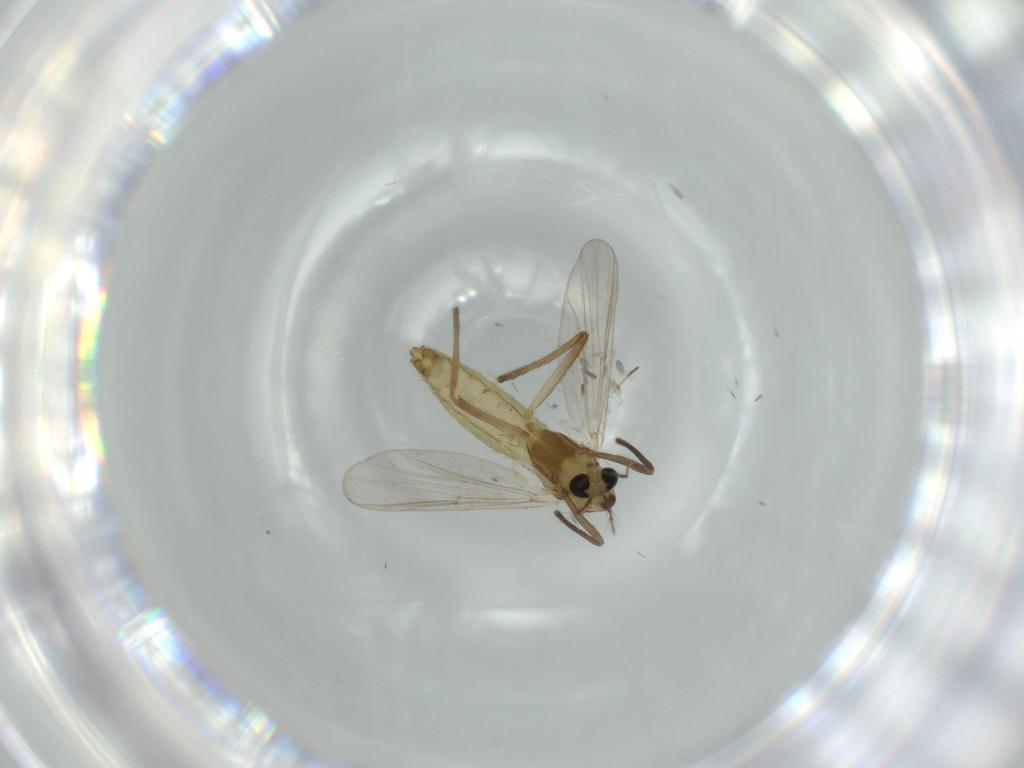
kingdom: Animalia
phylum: Arthropoda
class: Insecta
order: Diptera
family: Chironomidae
